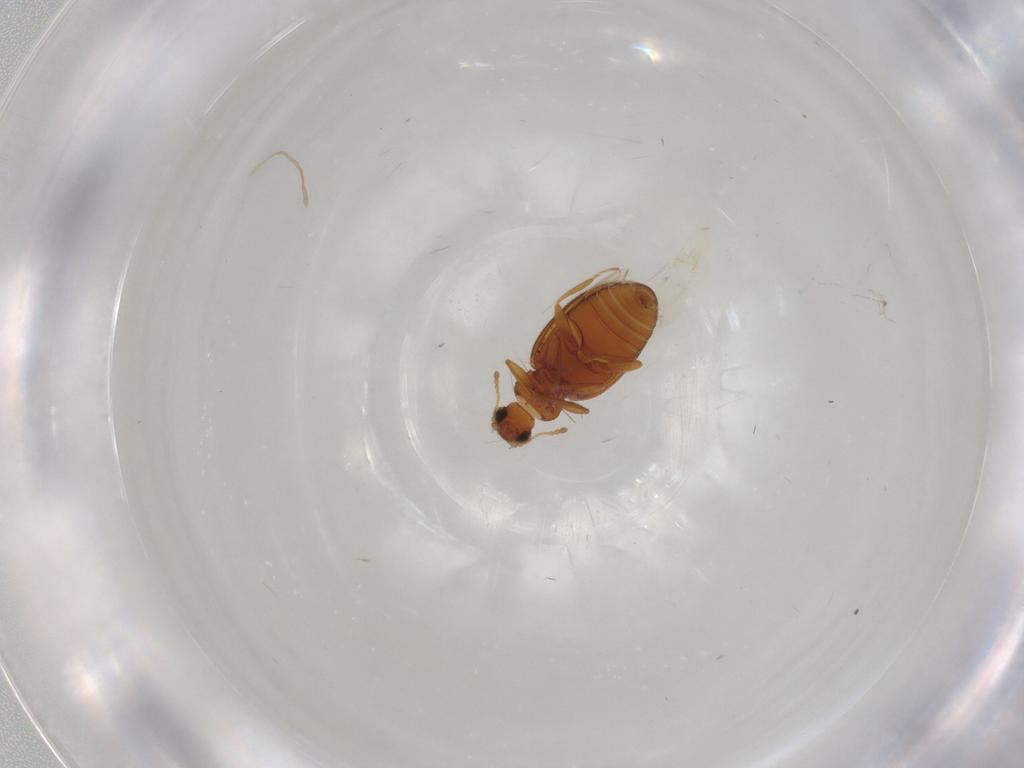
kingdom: Animalia
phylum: Arthropoda
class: Insecta
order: Coleoptera
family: Latridiidae
